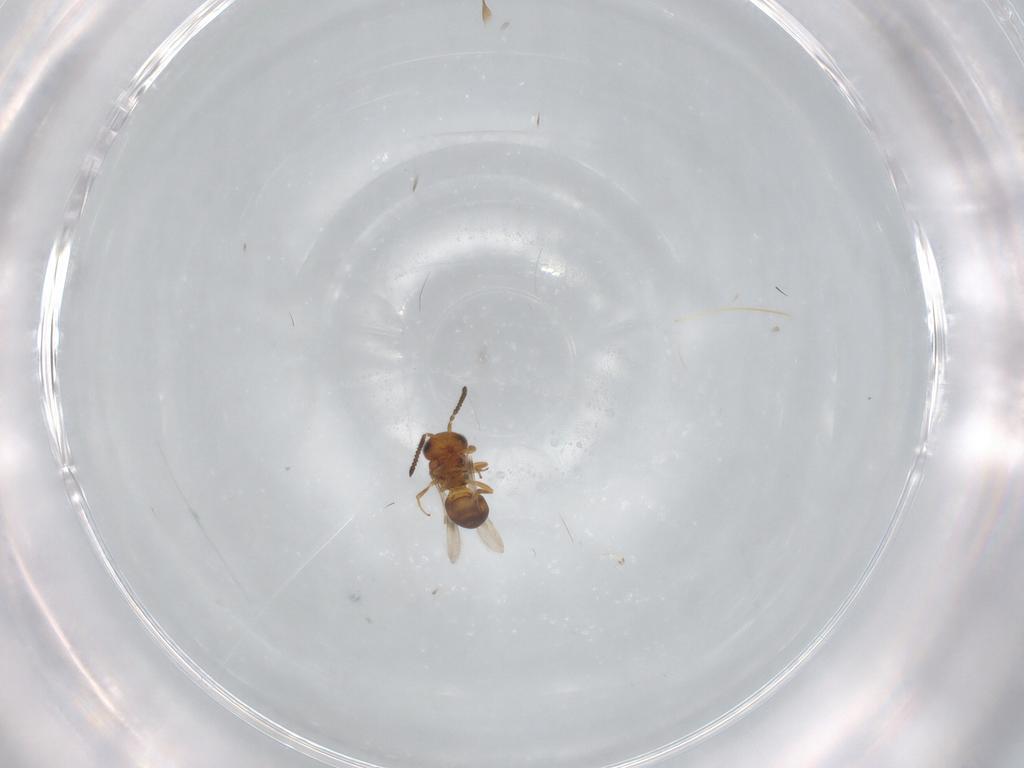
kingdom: Animalia
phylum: Arthropoda
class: Insecta
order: Hymenoptera
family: Scelionidae
